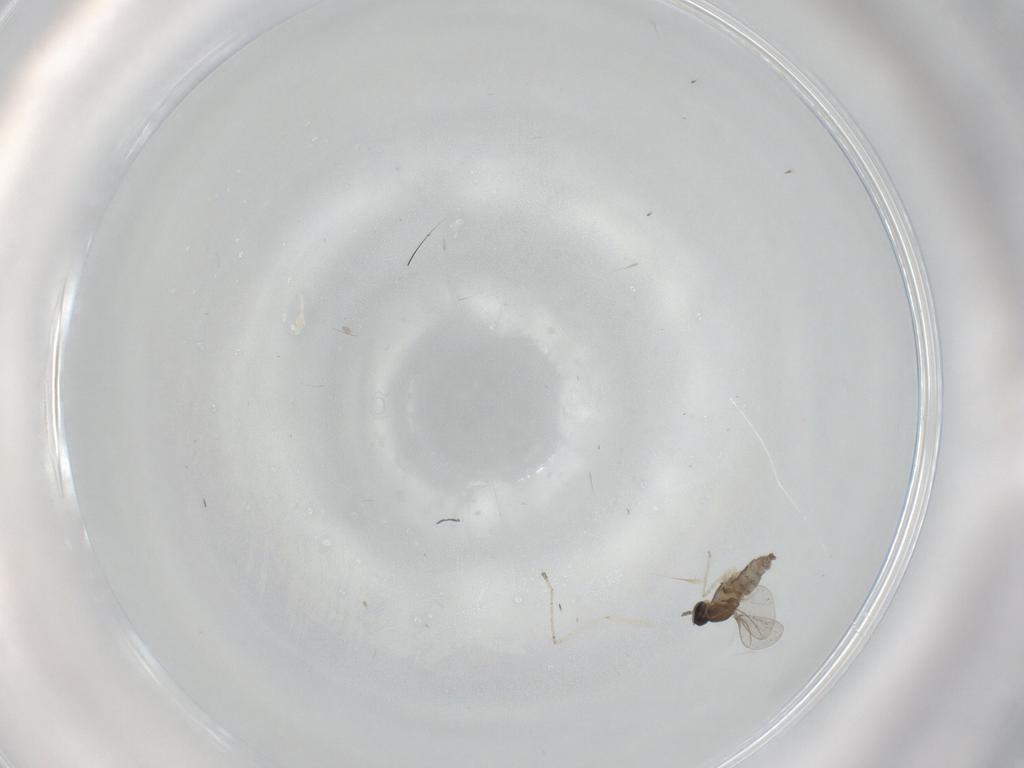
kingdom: Animalia
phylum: Arthropoda
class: Insecta
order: Diptera
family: Cecidomyiidae
